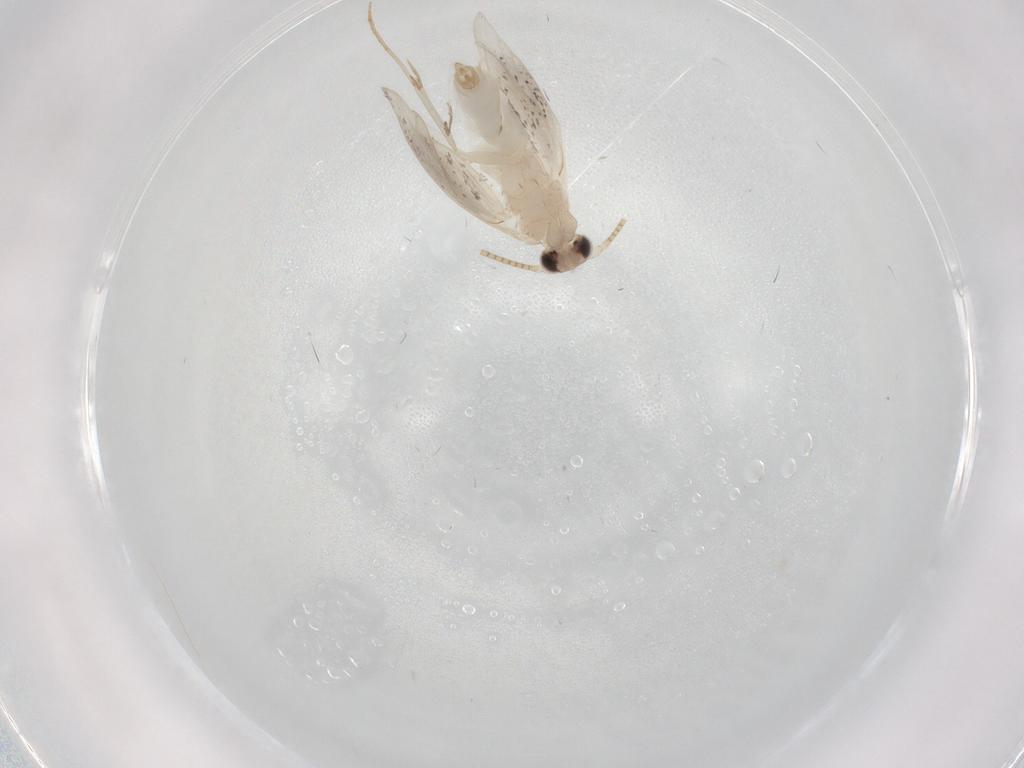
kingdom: Animalia
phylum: Arthropoda
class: Insecta
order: Lepidoptera
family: Tineidae
